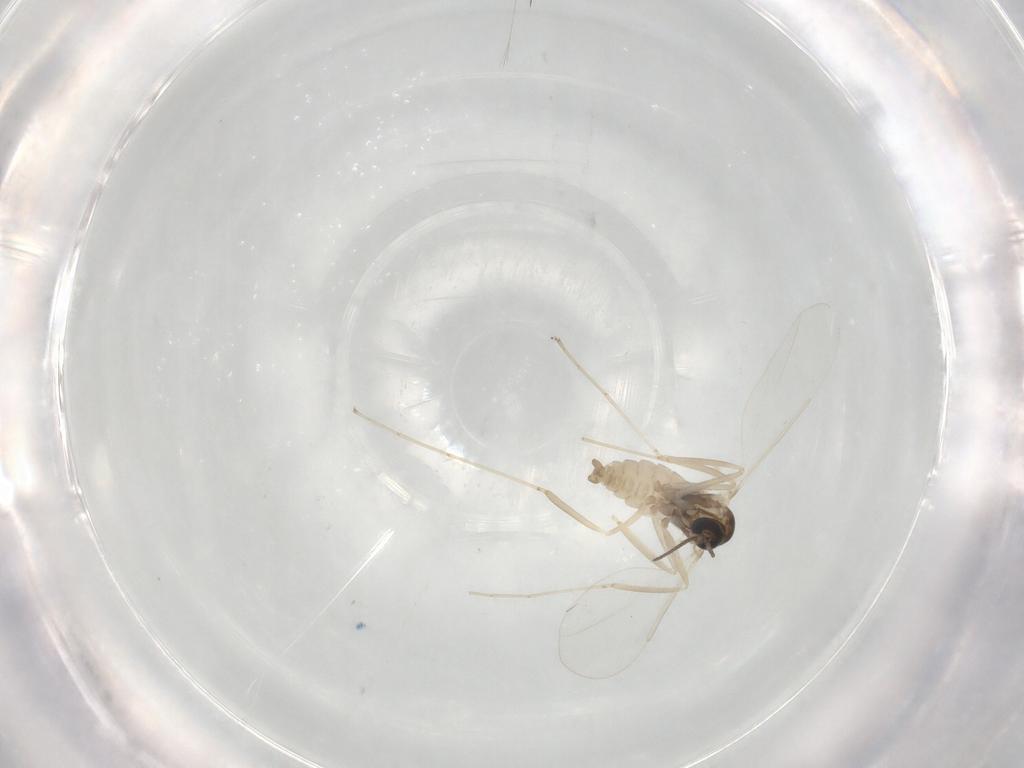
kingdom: Animalia
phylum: Arthropoda
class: Insecta
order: Diptera
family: Cecidomyiidae
